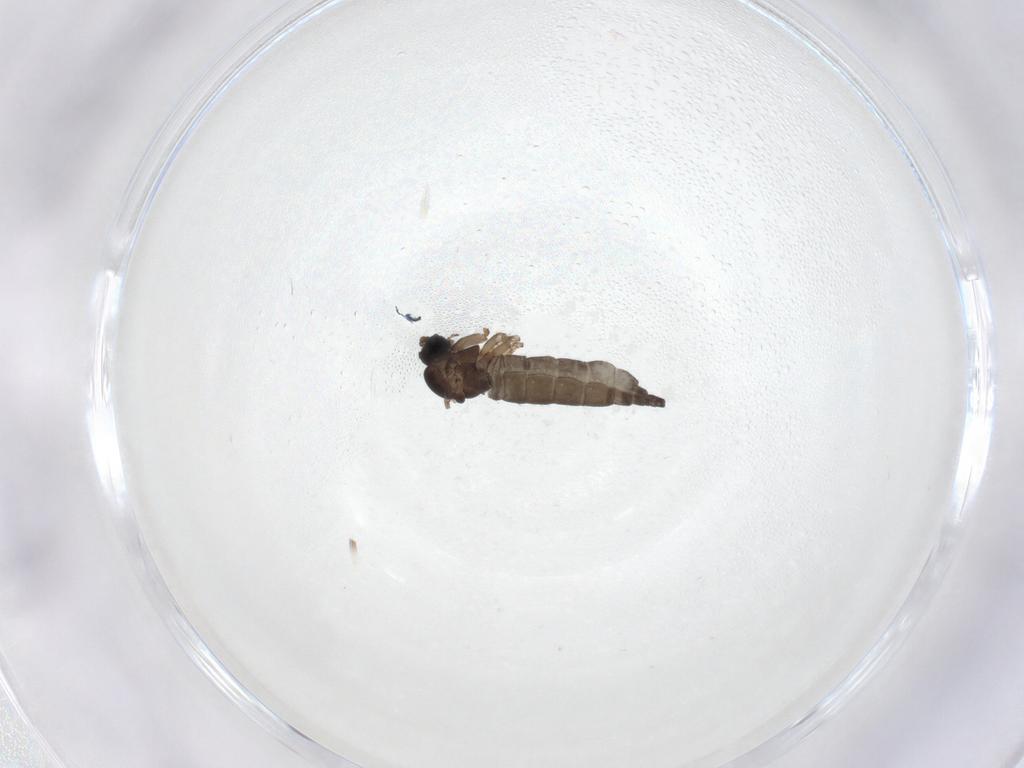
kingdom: Animalia
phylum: Arthropoda
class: Insecta
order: Diptera
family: Sciaridae
